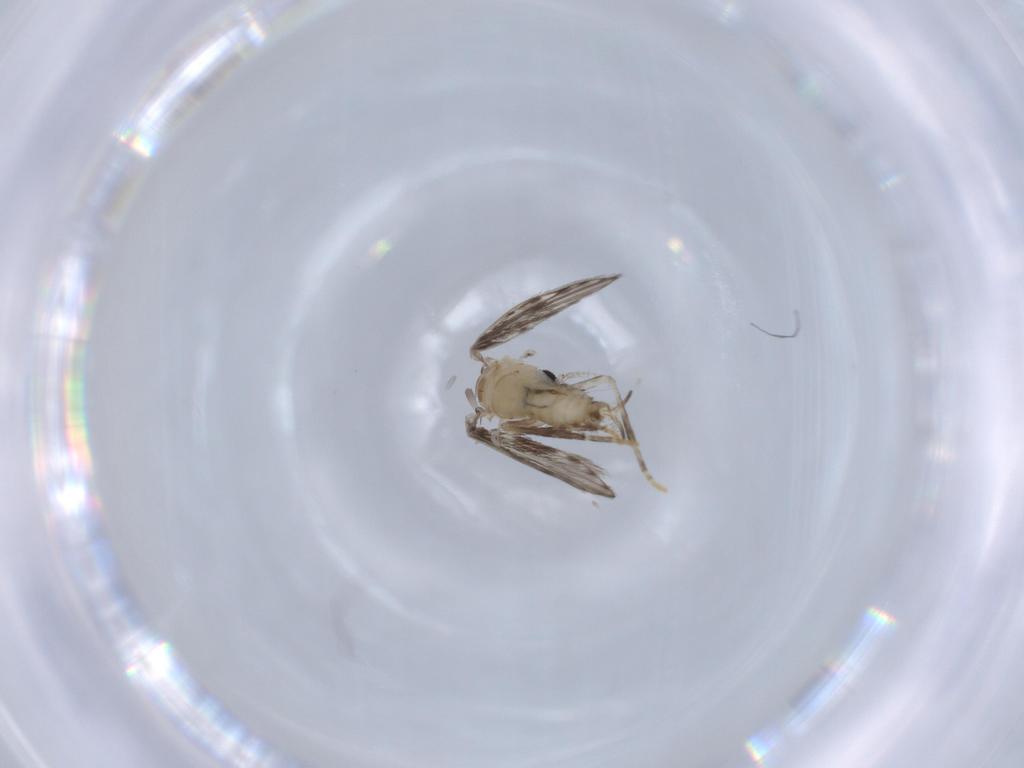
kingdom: Animalia
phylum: Arthropoda
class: Insecta
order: Diptera
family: Psychodidae
